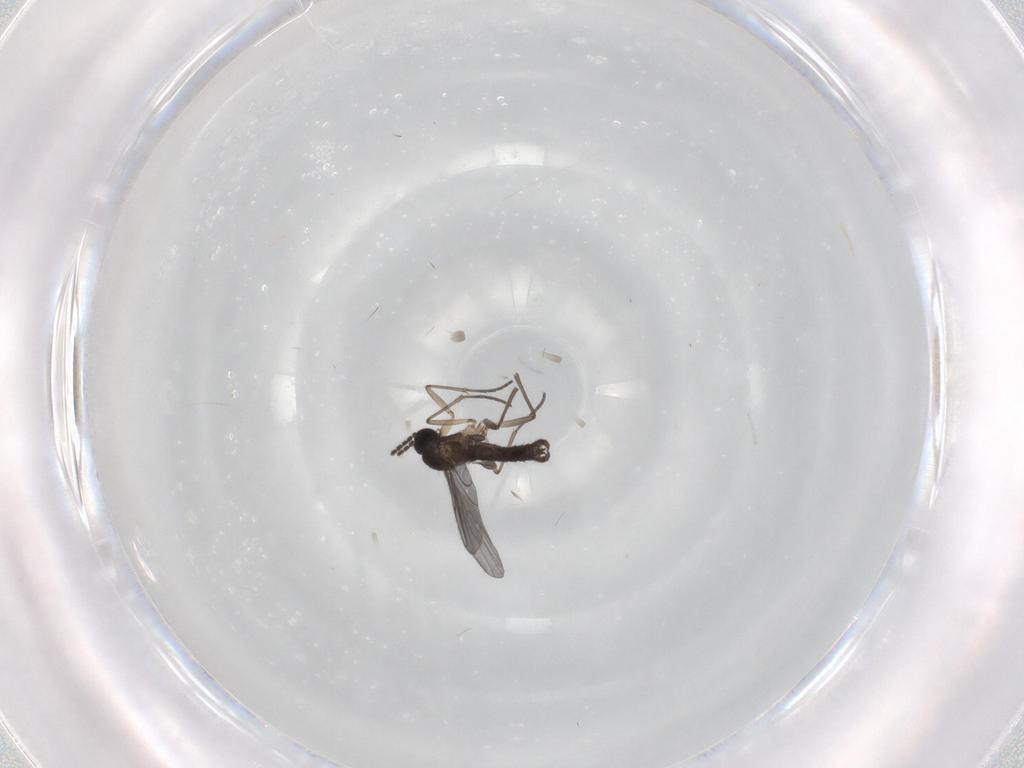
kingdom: Animalia
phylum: Arthropoda
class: Insecta
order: Diptera
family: Sciaridae
